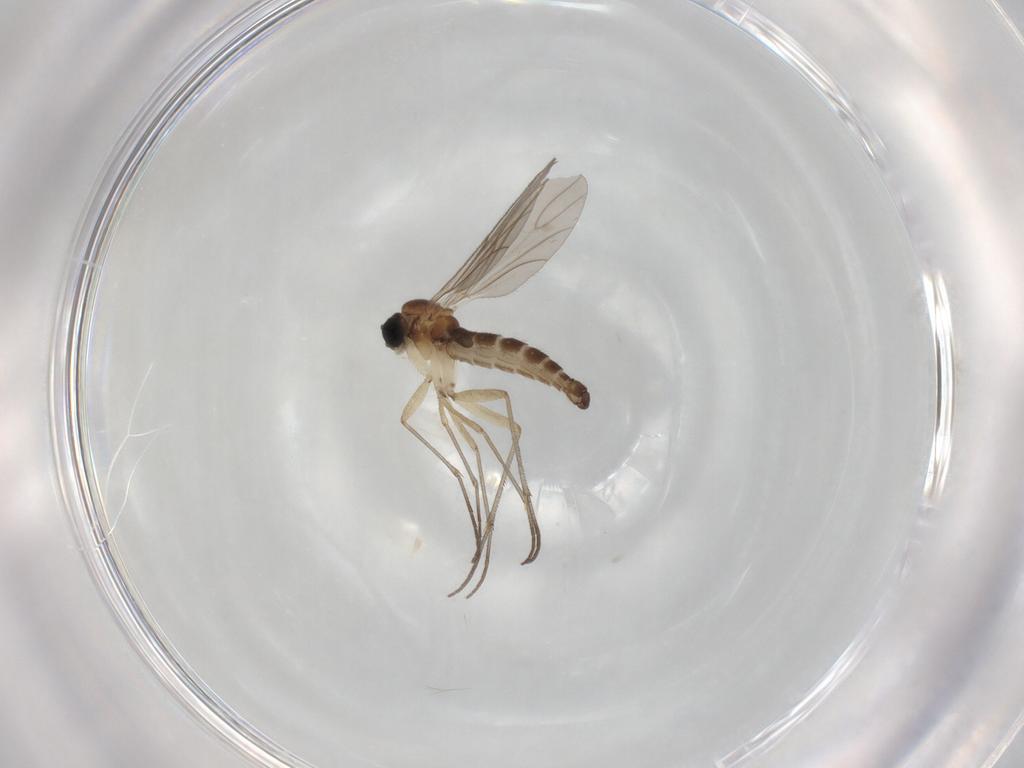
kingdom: Animalia
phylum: Arthropoda
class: Insecta
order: Diptera
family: Sciaridae
